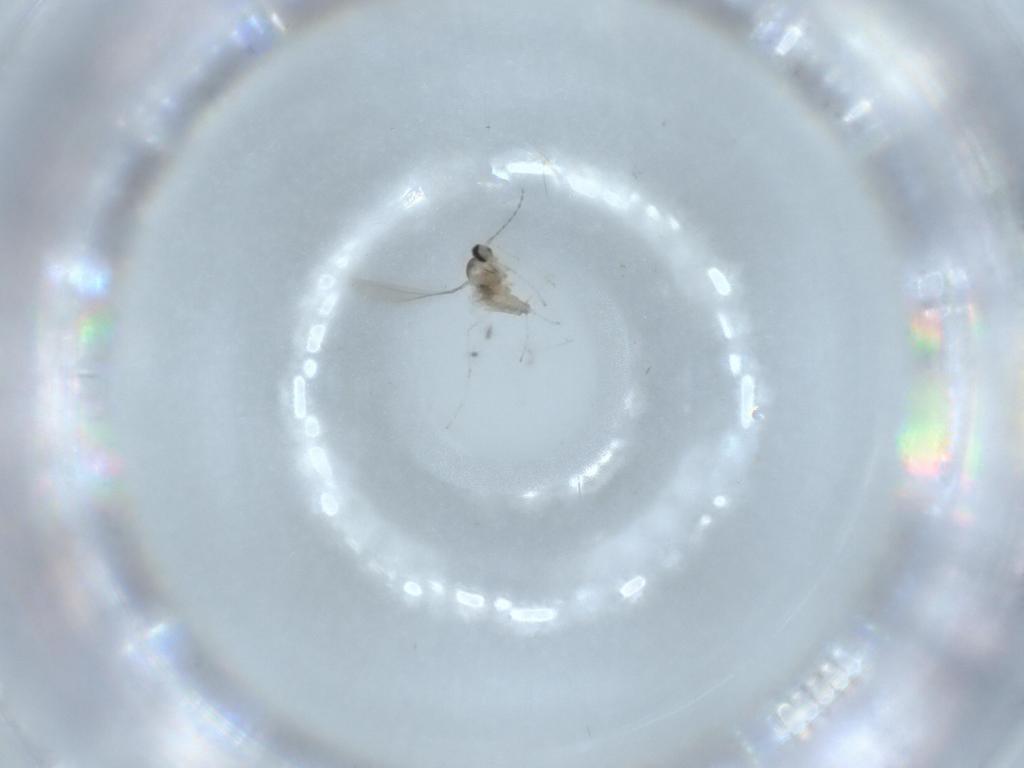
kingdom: Animalia
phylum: Arthropoda
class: Insecta
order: Diptera
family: Cecidomyiidae
